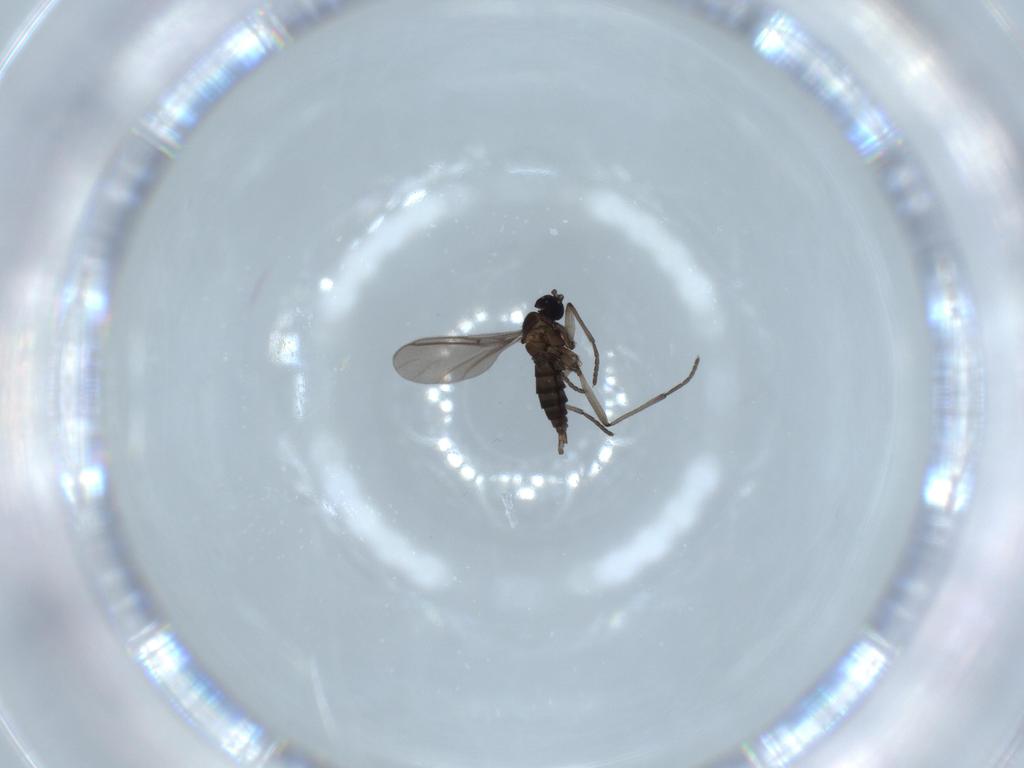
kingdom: Animalia
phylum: Arthropoda
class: Insecta
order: Diptera
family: Sciaridae
